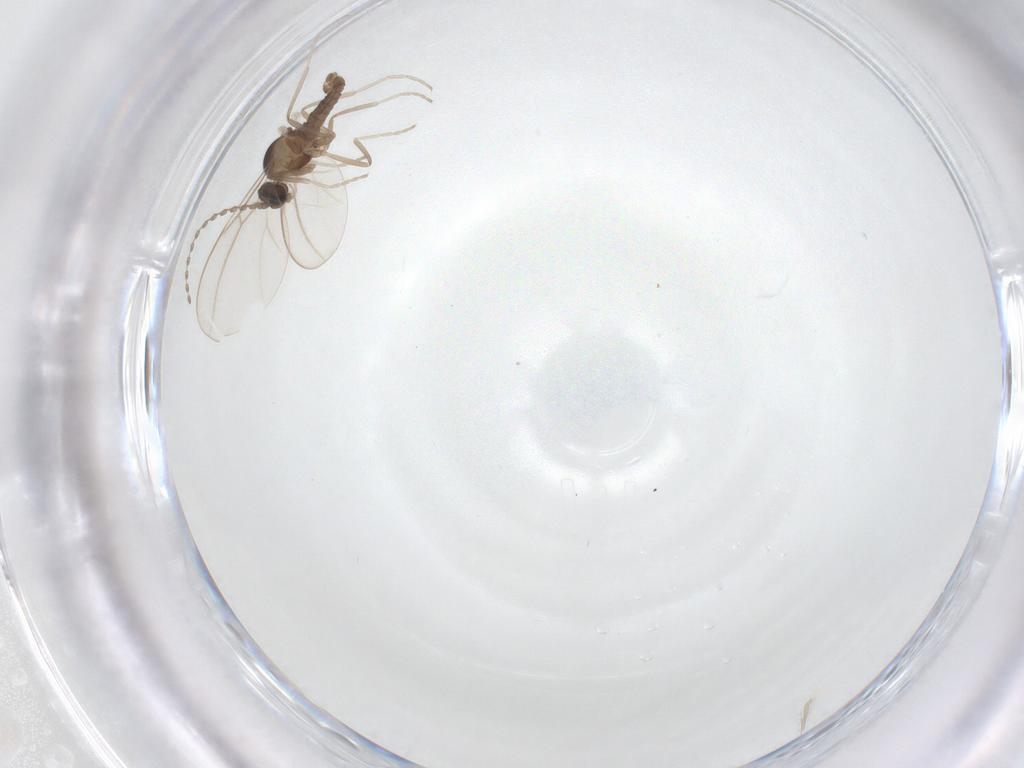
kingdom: Animalia
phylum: Arthropoda
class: Insecta
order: Diptera
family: Cecidomyiidae
